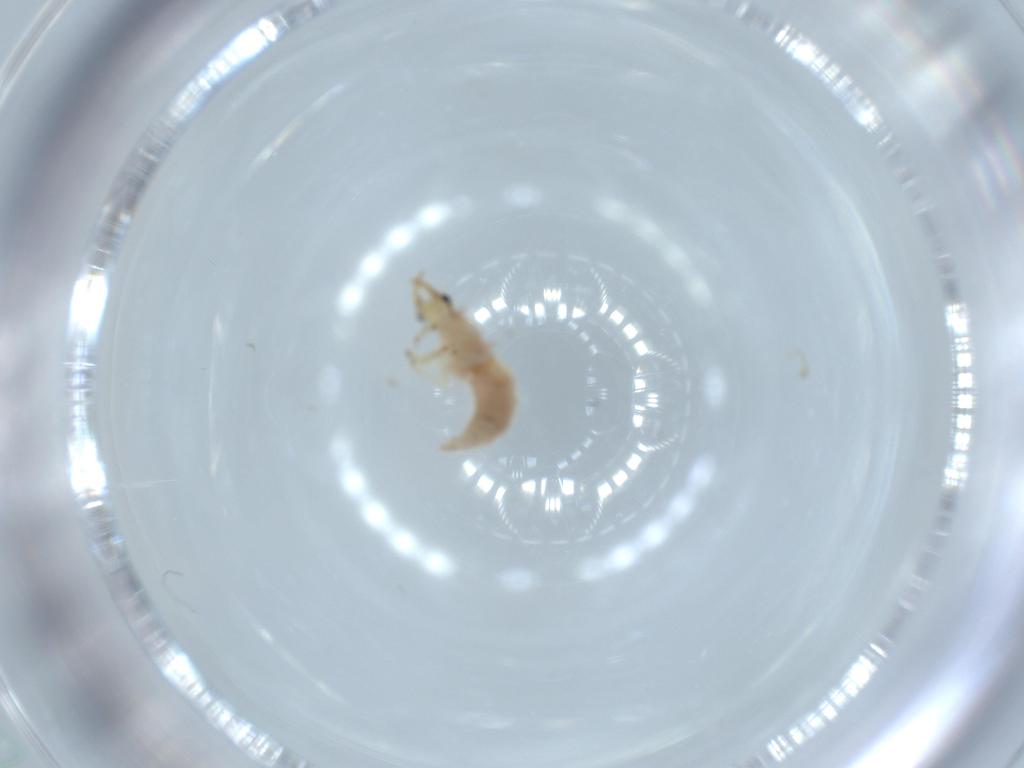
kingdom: Animalia
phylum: Arthropoda
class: Insecta
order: Neuroptera
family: Chrysopidae
